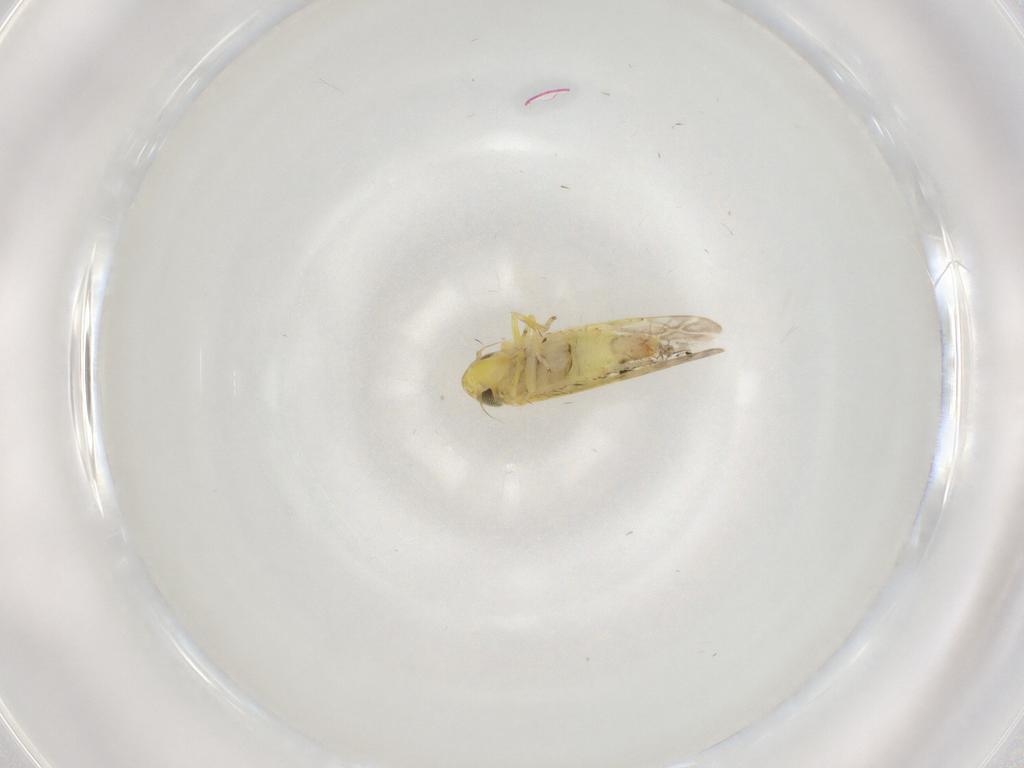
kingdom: Animalia
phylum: Arthropoda
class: Insecta
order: Hemiptera
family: Cicadellidae
